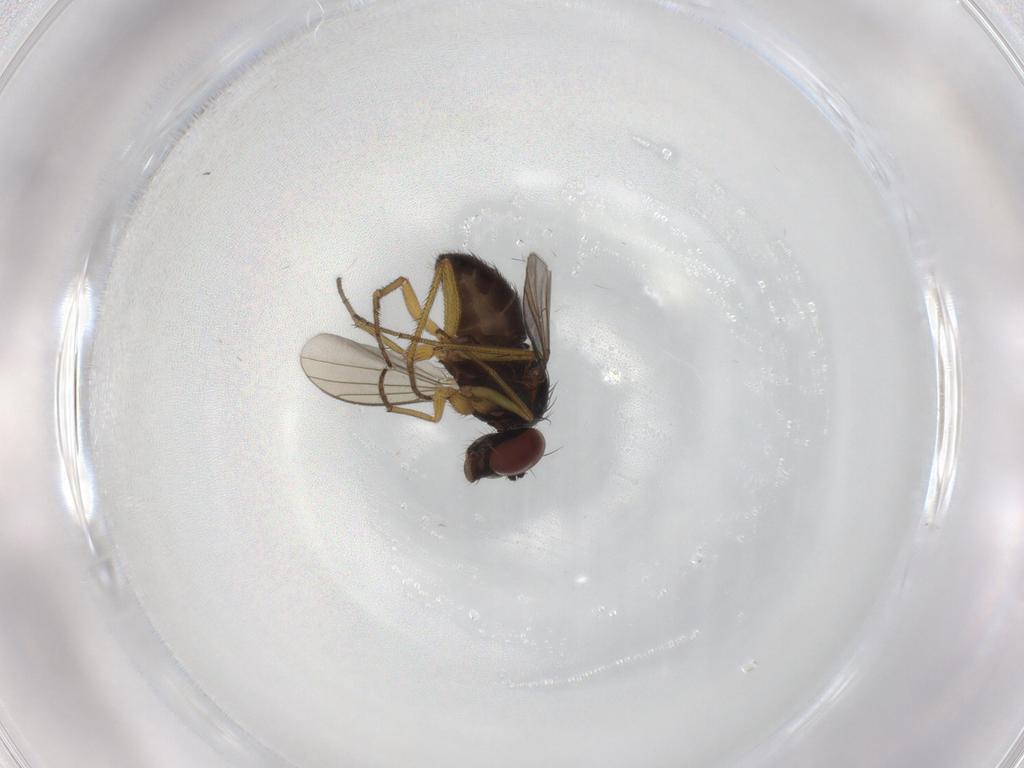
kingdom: Animalia
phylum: Arthropoda
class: Insecta
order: Diptera
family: Dolichopodidae
